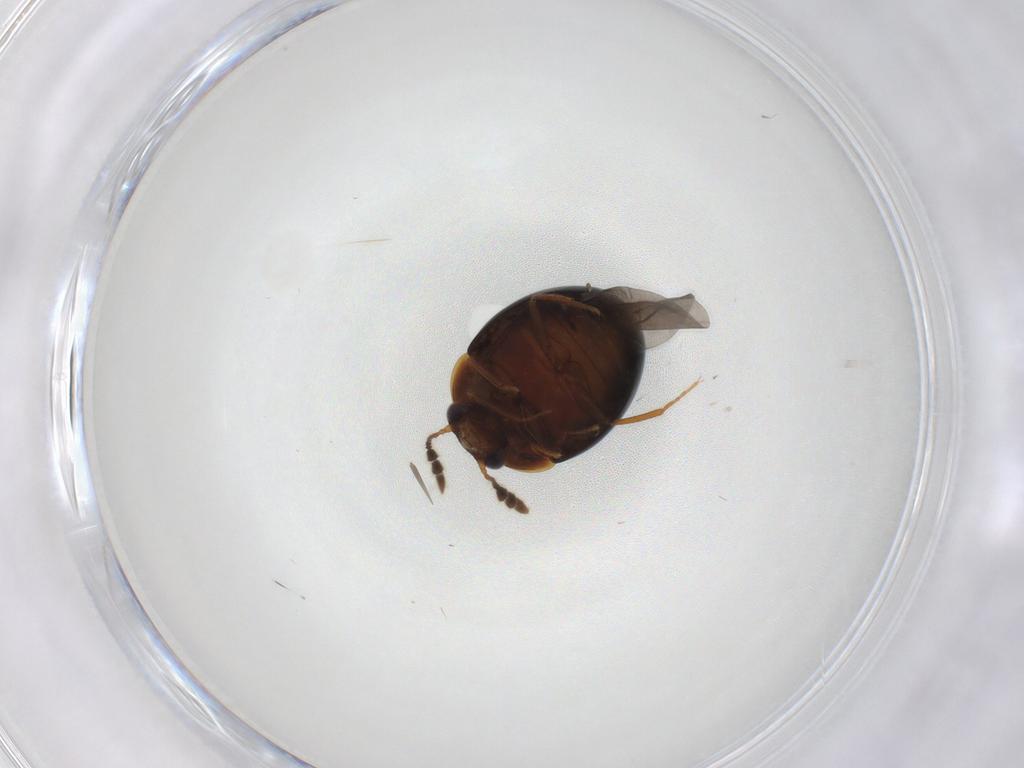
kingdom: Animalia
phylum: Arthropoda
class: Insecta
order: Coleoptera
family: Leiodidae
